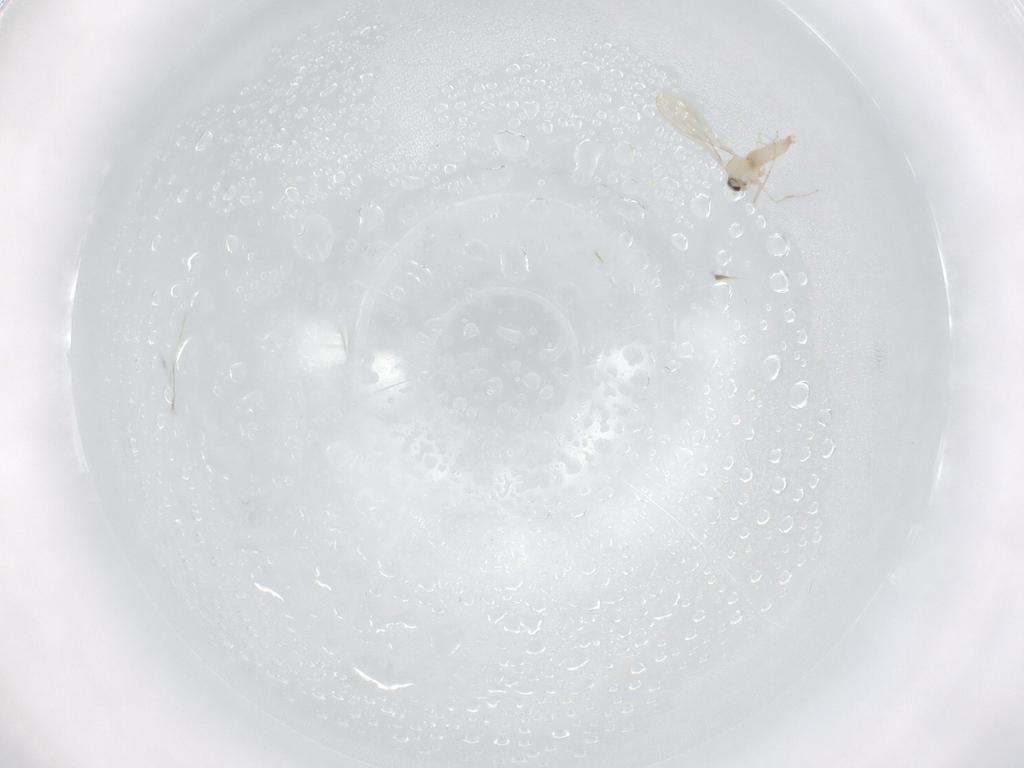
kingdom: Animalia
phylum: Arthropoda
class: Insecta
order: Diptera
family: Cecidomyiidae
